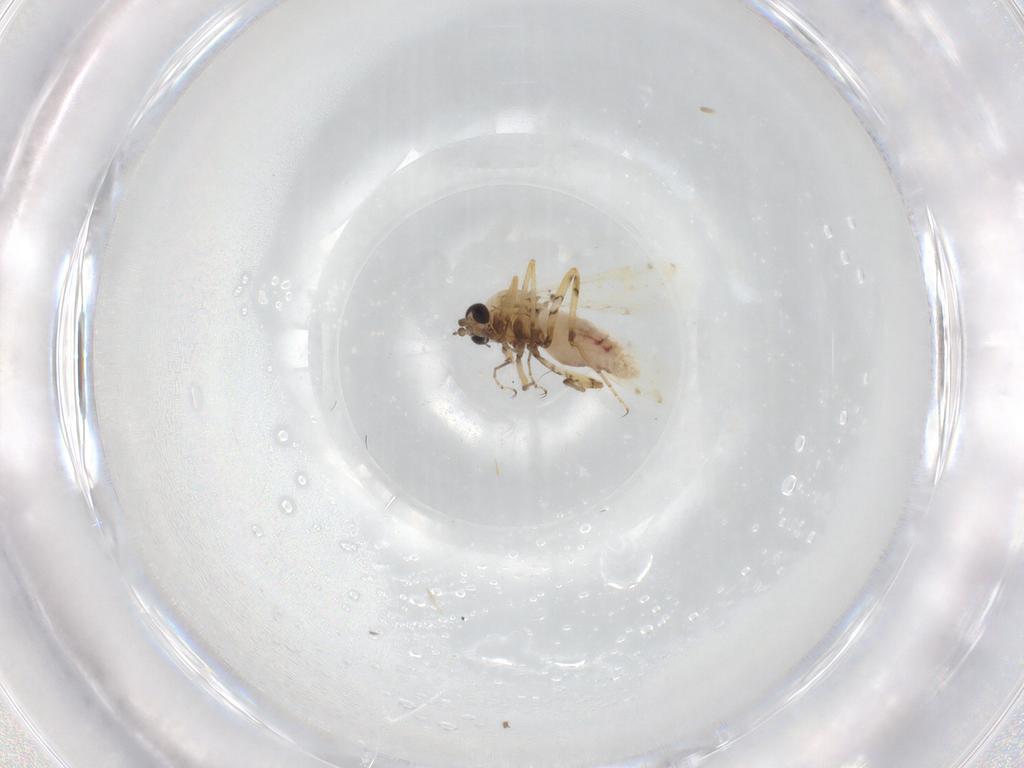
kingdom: Animalia
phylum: Arthropoda
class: Insecta
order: Diptera
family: Ceratopogonidae
